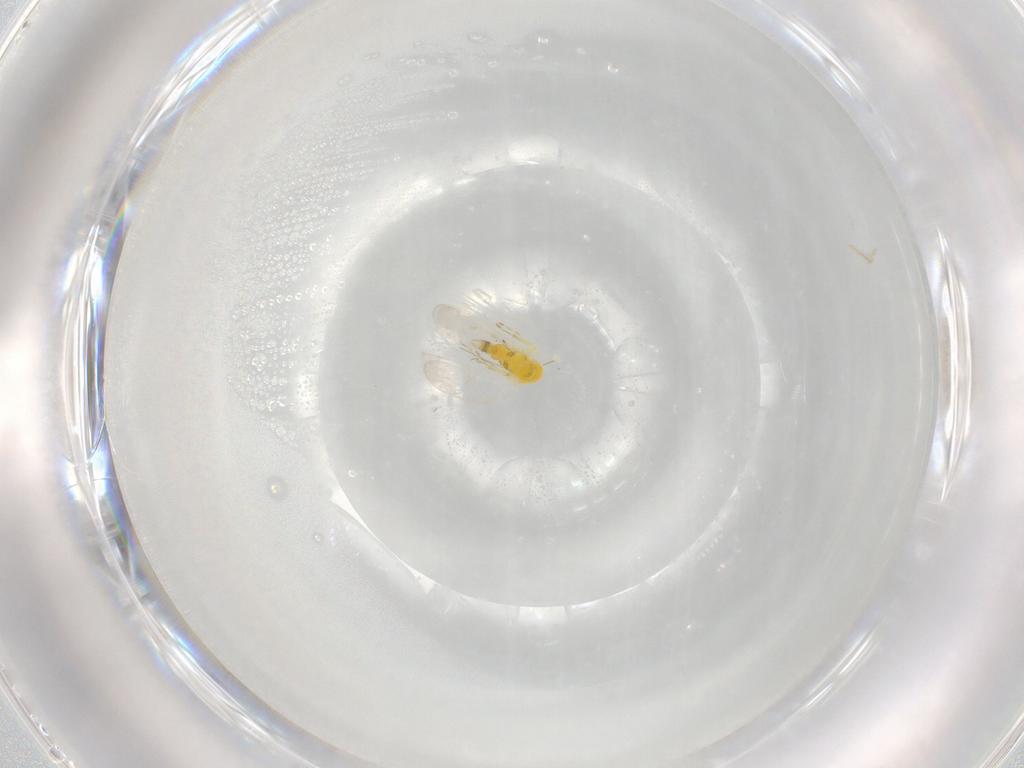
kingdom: Animalia
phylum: Arthropoda
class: Insecta
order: Hemiptera
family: Aleyrodidae
